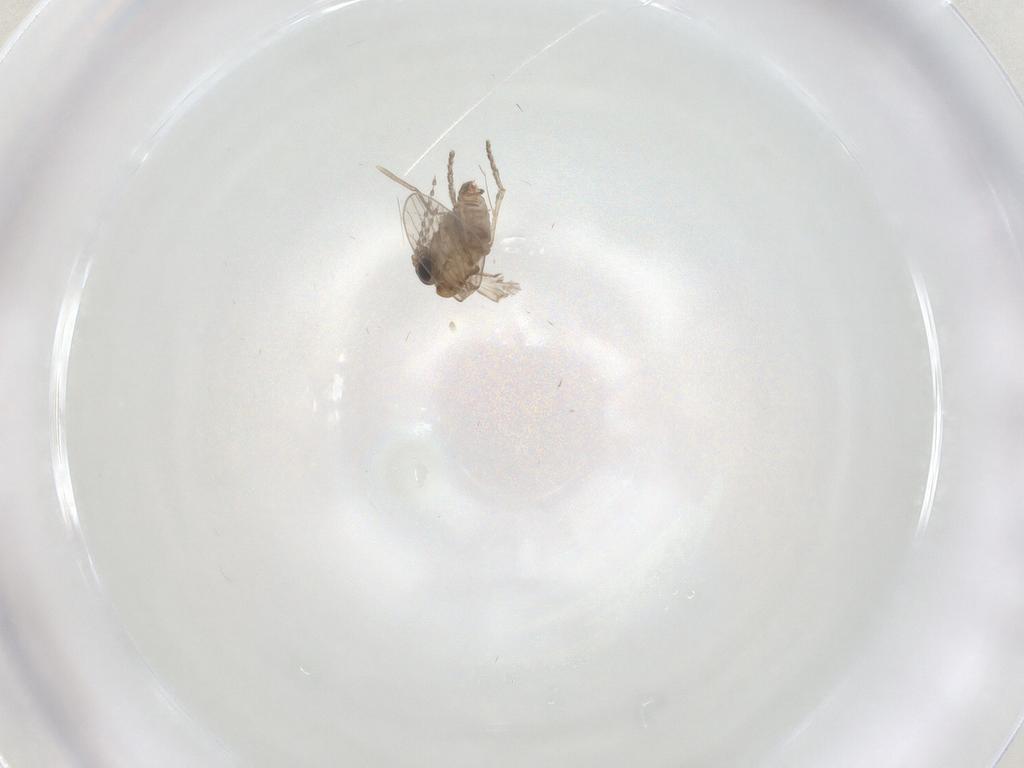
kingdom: Animalia
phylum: Arthropoda
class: Insecta
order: Diptera
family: Ditomyiidae
